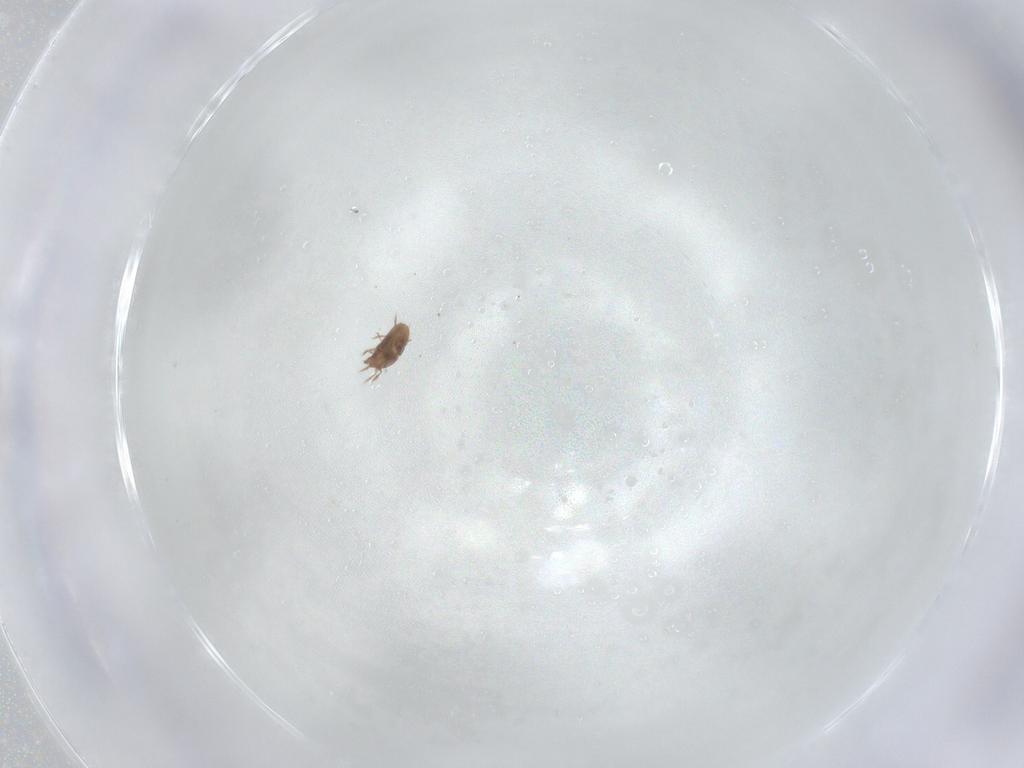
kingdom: Animalia
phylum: Arthropoda
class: Arachnida
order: Sarcoptiformes
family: Oribatulidae
